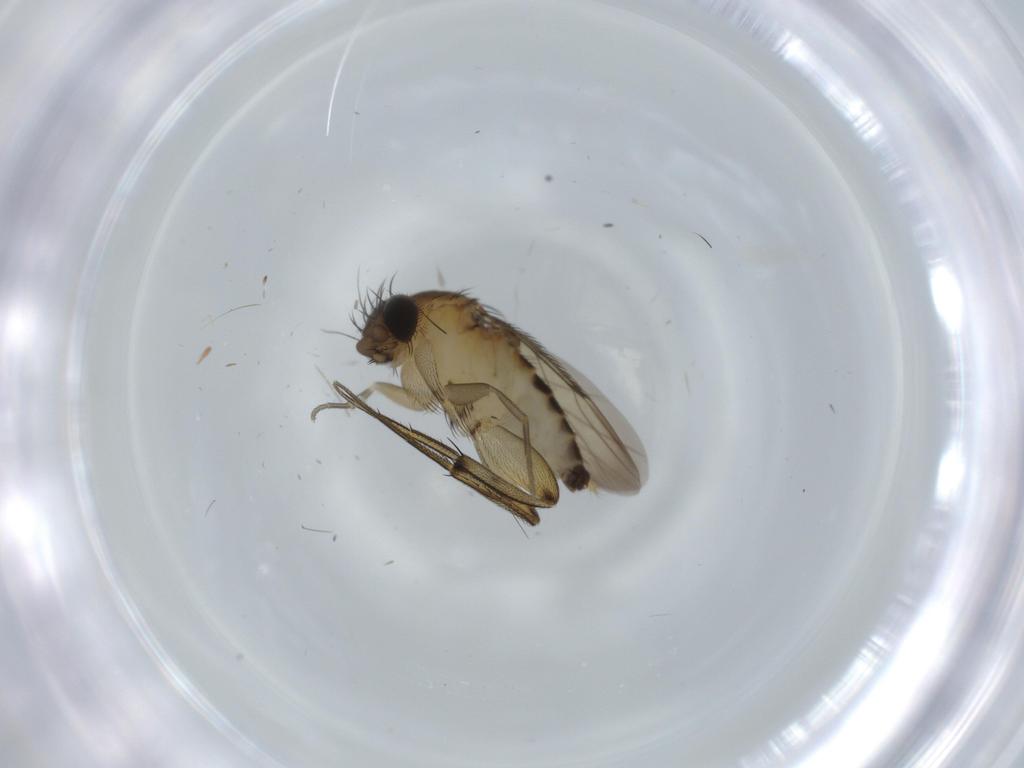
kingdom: Animalia
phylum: Arthropoda
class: Insecta
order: Diptera
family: Phoridae
